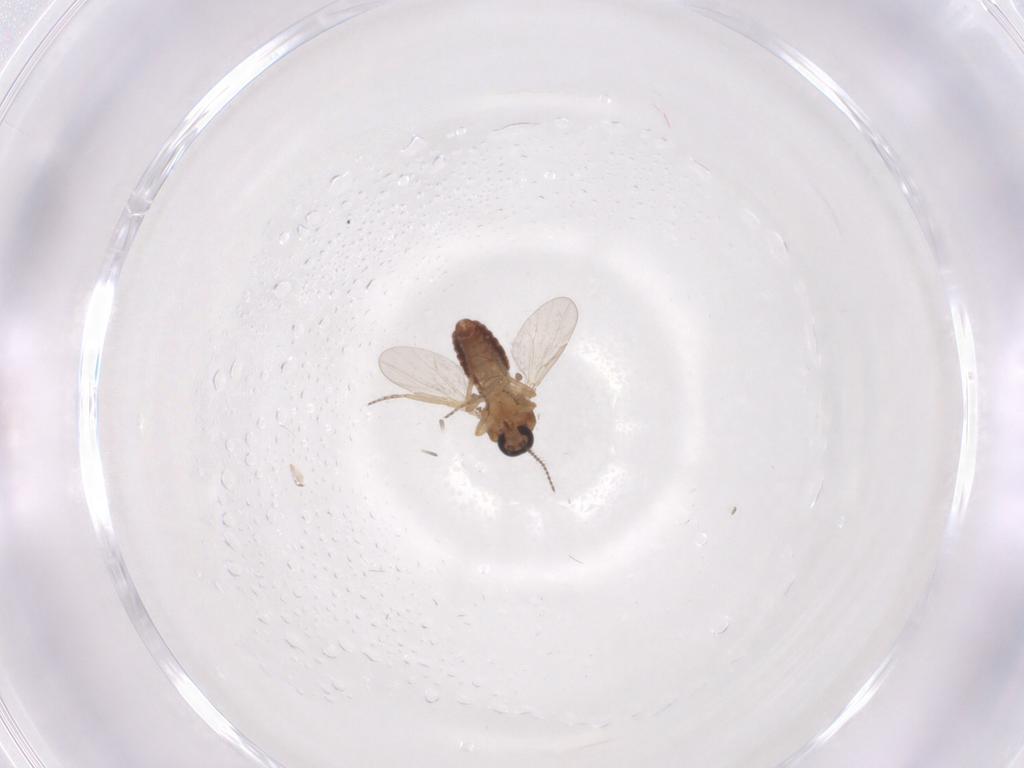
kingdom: Animalia
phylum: Arthropoda
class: Insecta
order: Diptera
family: Ceratopogonidae
